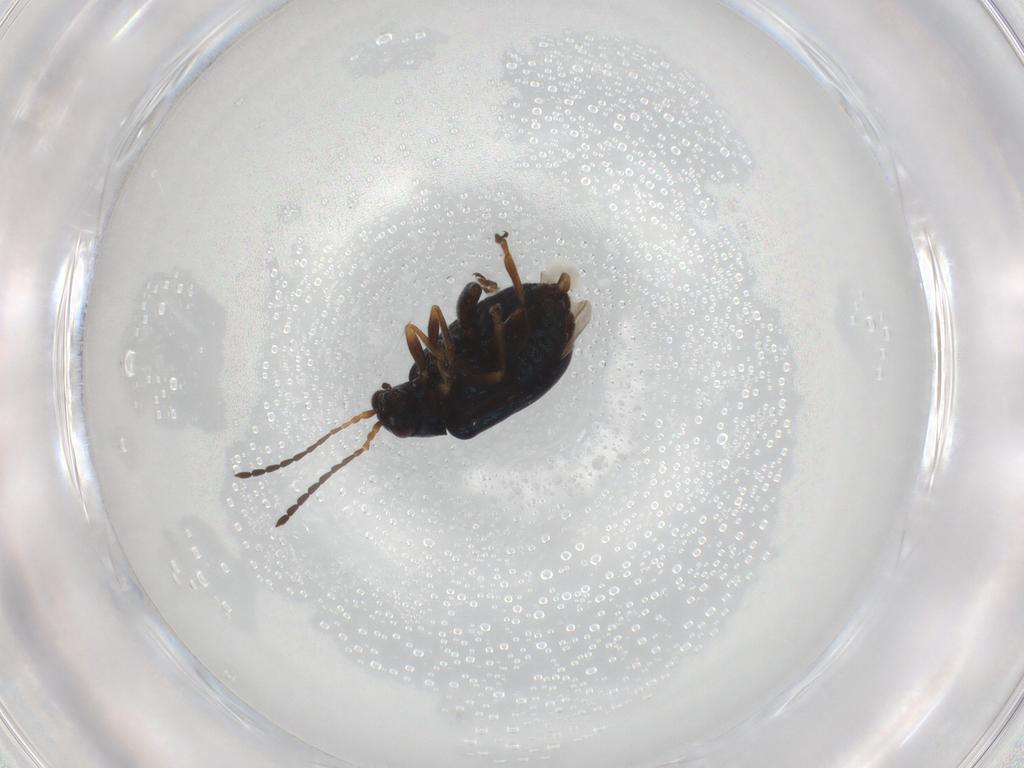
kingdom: Animalia
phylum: Arthropoda
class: Insecta
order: Coleoptera
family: Chrysomelidae
